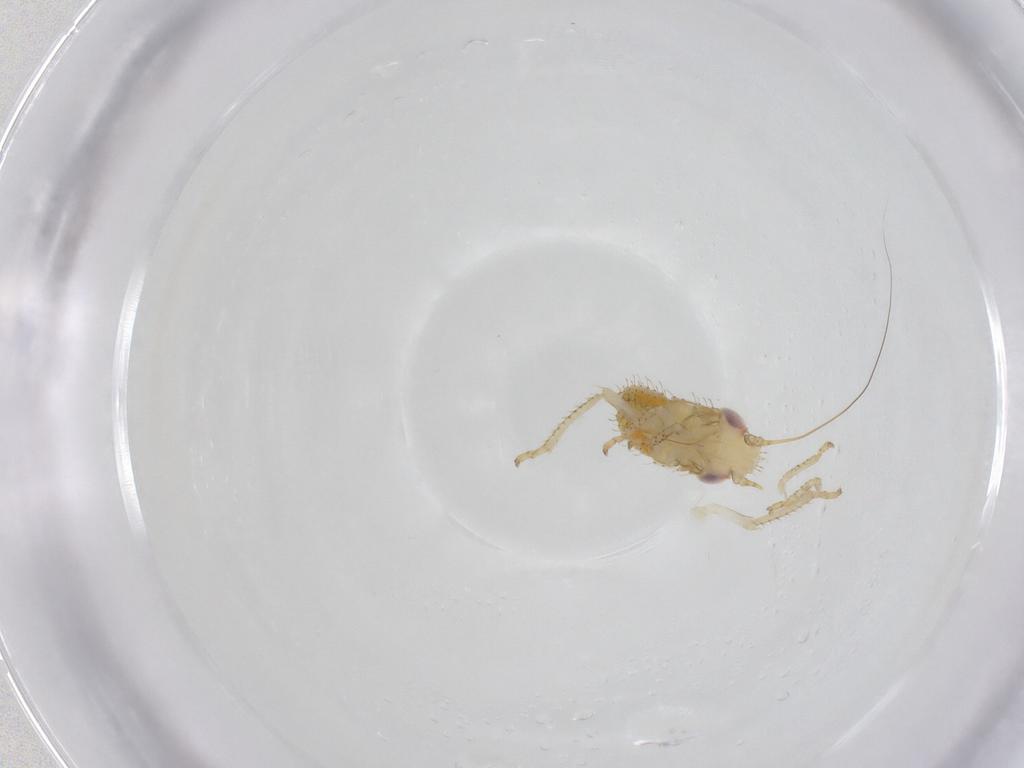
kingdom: Animalia
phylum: Arthropoda
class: Insecta
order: Hemiptera
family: Cicadellidae
